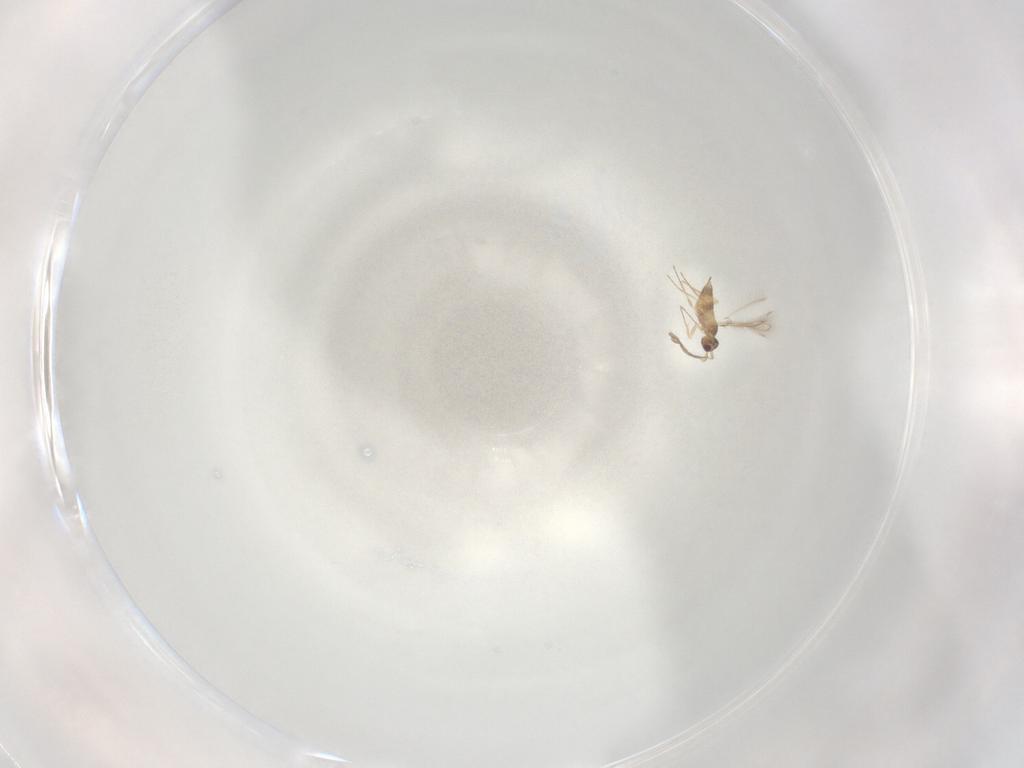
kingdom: Animalia
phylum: Arthropoda
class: Insecta
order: Hymenoptera
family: Mymaridae
